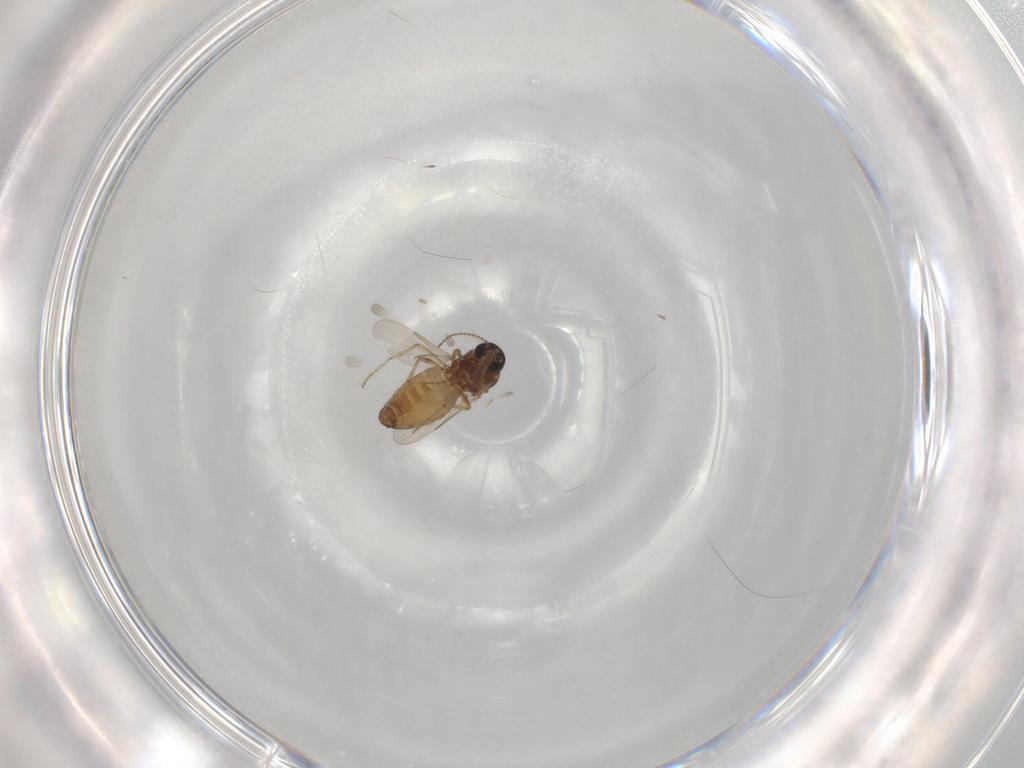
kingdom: Animalia
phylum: Arthropoda
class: Insecta
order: Diptera
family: Ceratopogonidae
